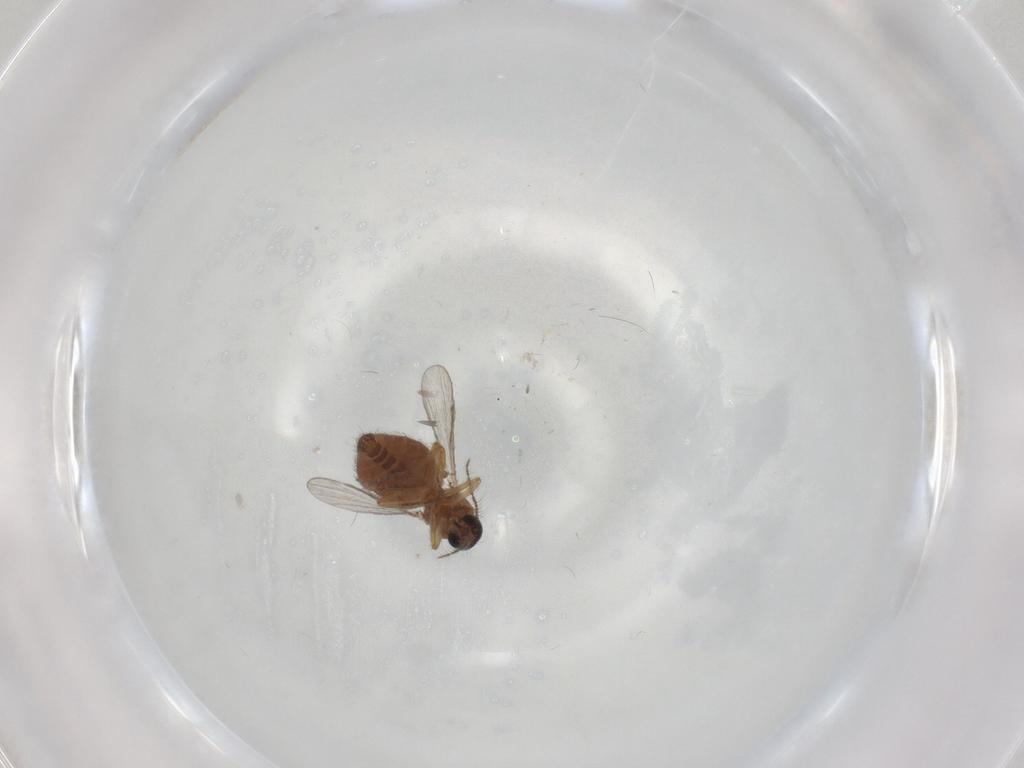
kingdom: Animalia
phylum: Arthropoda
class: Insecta
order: Diptera
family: Ceratopogonidae
